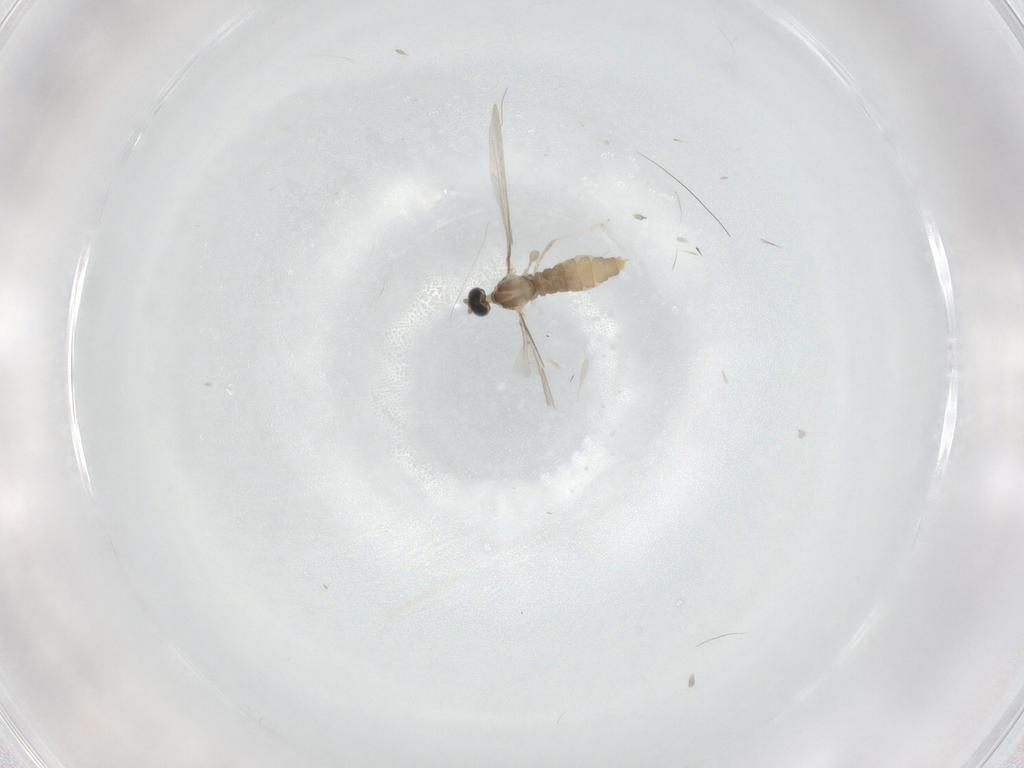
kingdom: Animalia
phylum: Arthropoda
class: Insecta
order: Diptera
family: Cecidomyiidae
